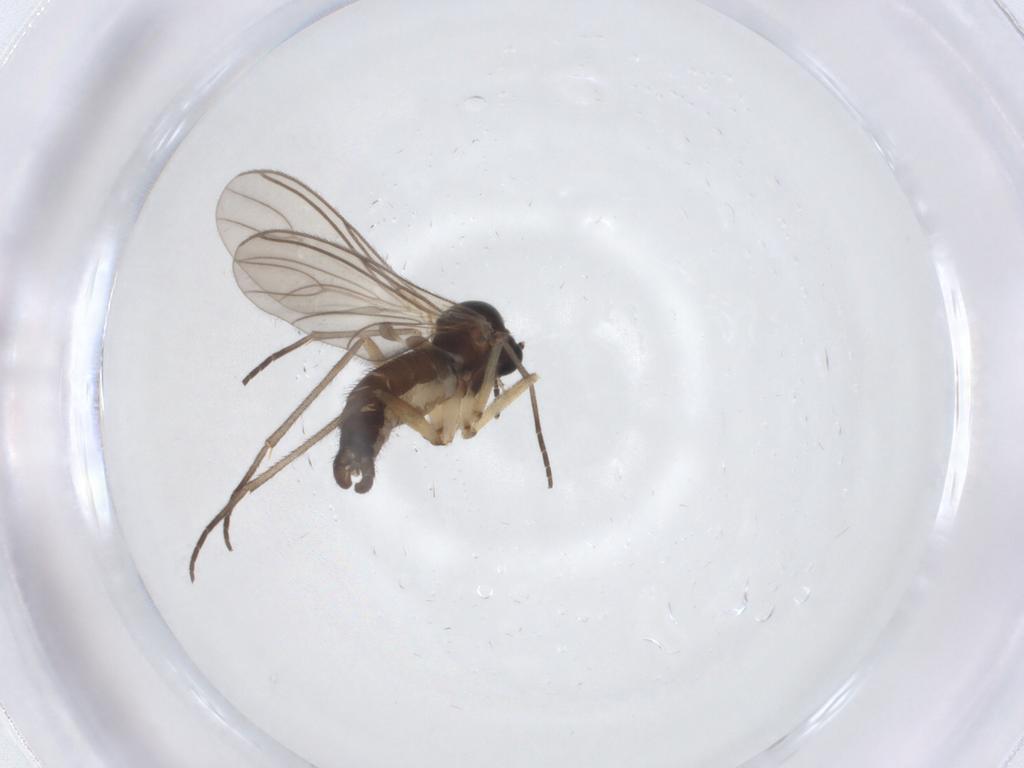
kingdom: Animalia
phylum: Arthropoda
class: Insecta
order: Diptera
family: Sciaridae
